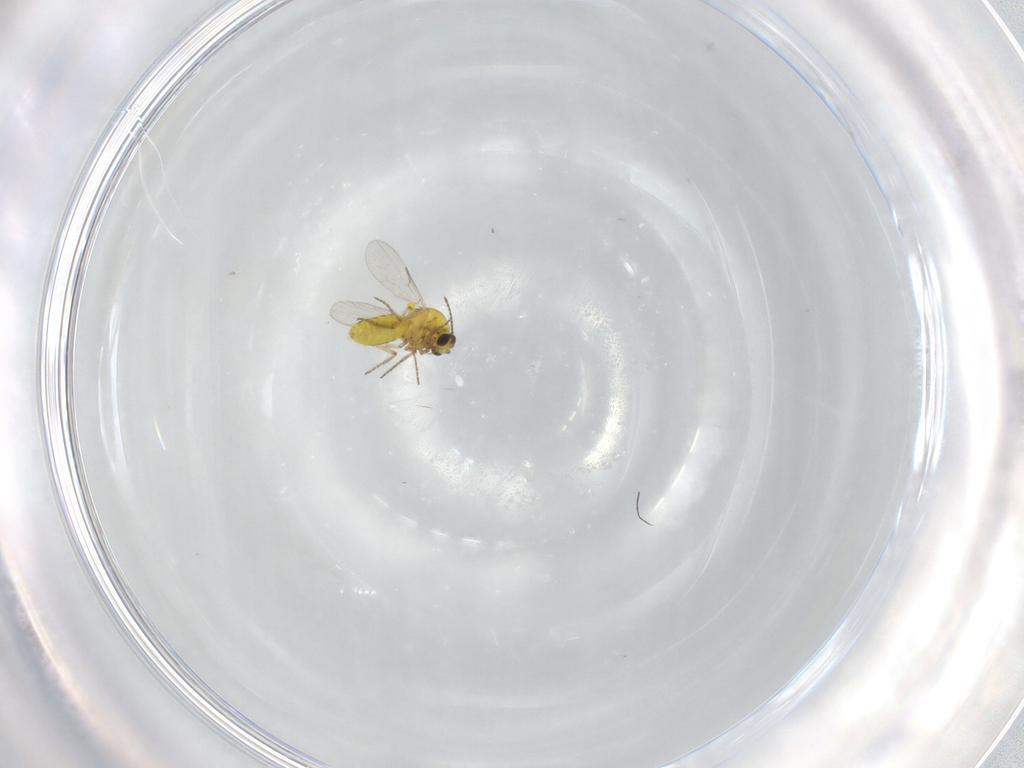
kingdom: Animalia
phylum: Arthropoda
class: Insecta
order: Diptera
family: Ceratopogonidae
